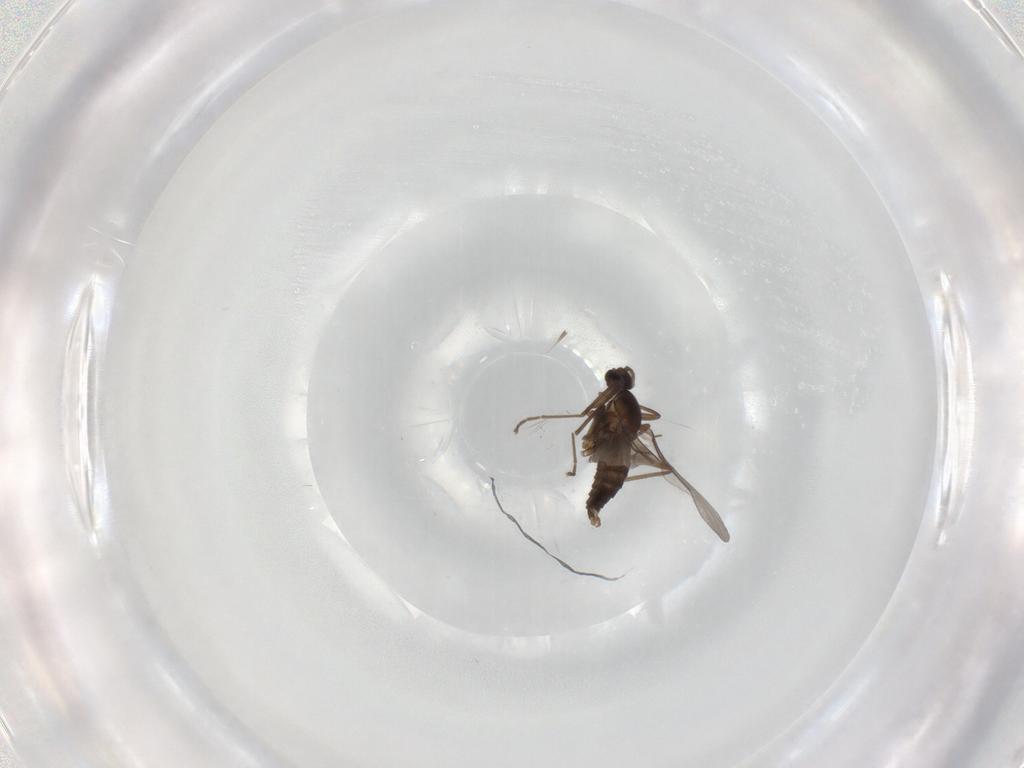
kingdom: Animalia
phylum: Arthropoda
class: Insecta
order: Diptera
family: Cecidomyiidae
